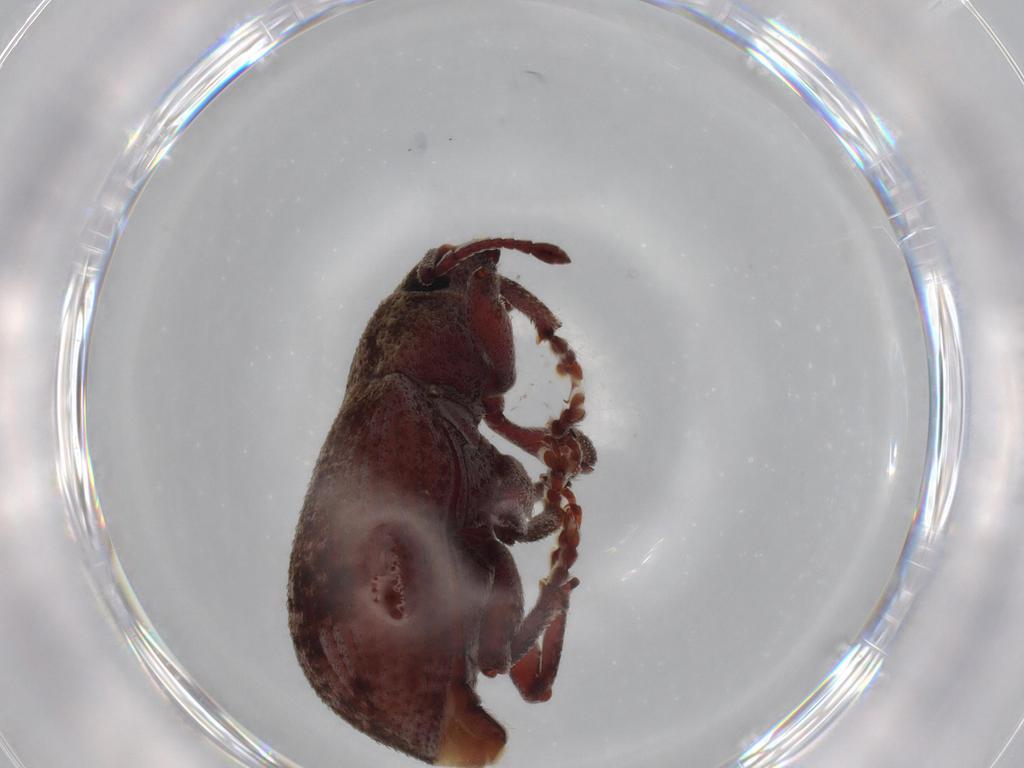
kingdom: Animalia
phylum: Arthropoda
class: Insecta
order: Coleoptera
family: Curculionidae
